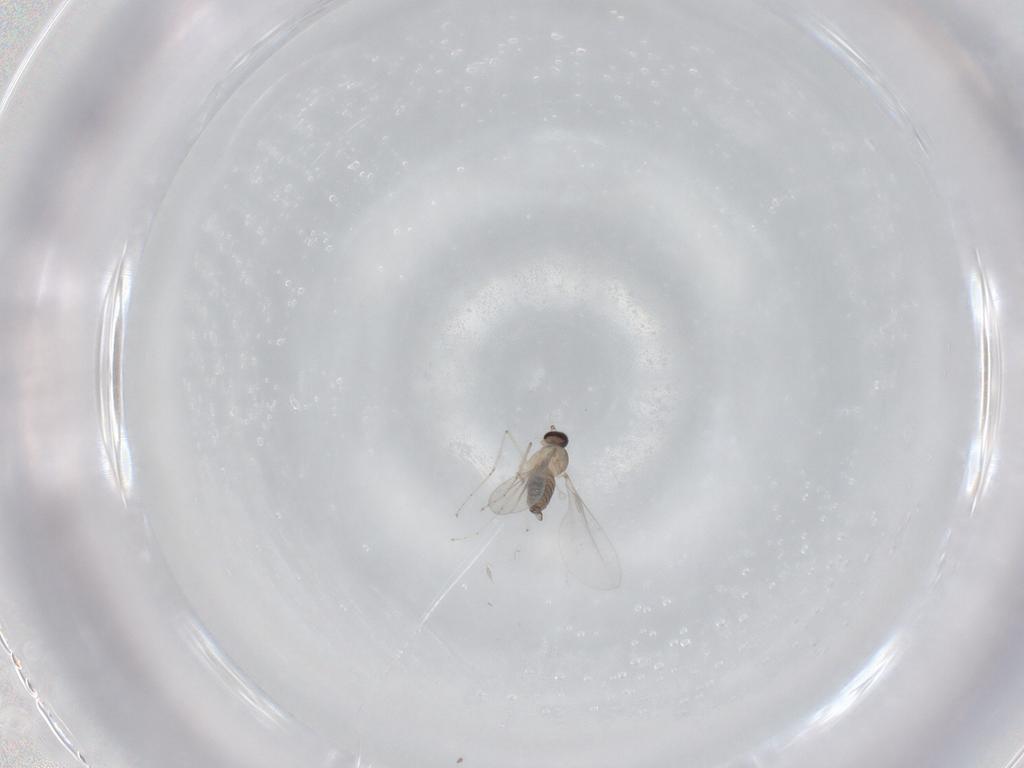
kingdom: Animalia
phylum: Arthropoda
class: Insecta
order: Diptera
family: Cecidomyiidae
